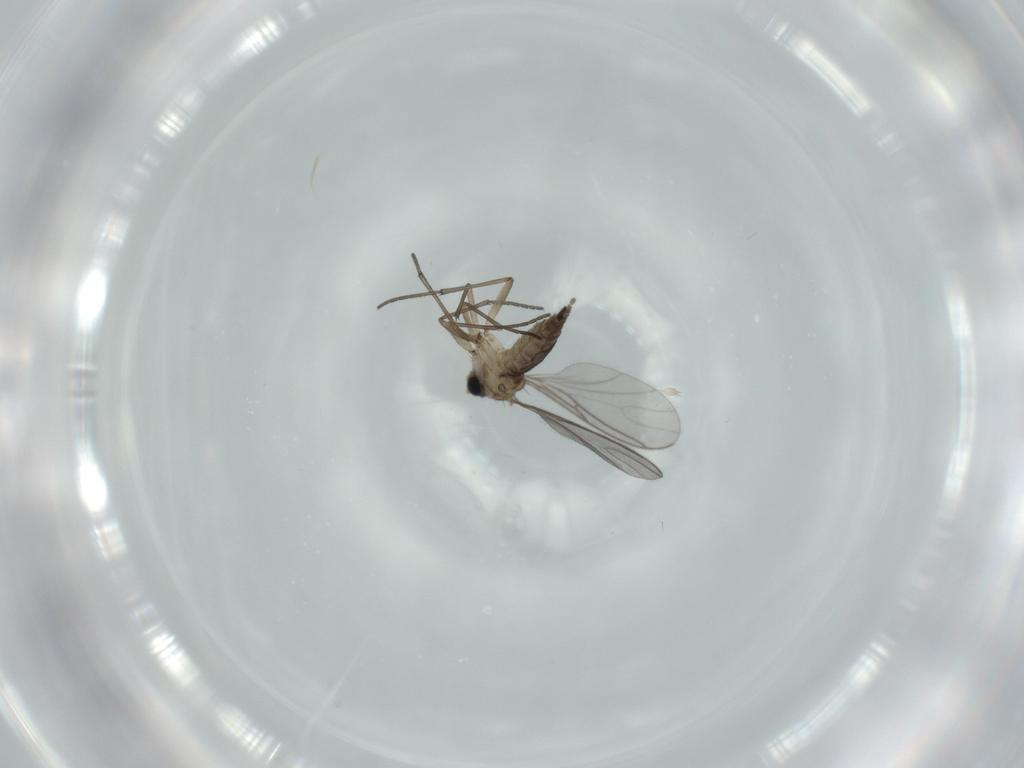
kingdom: Animalia
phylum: Arthropoda
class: Insecta
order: Diptera
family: Sciaridae
